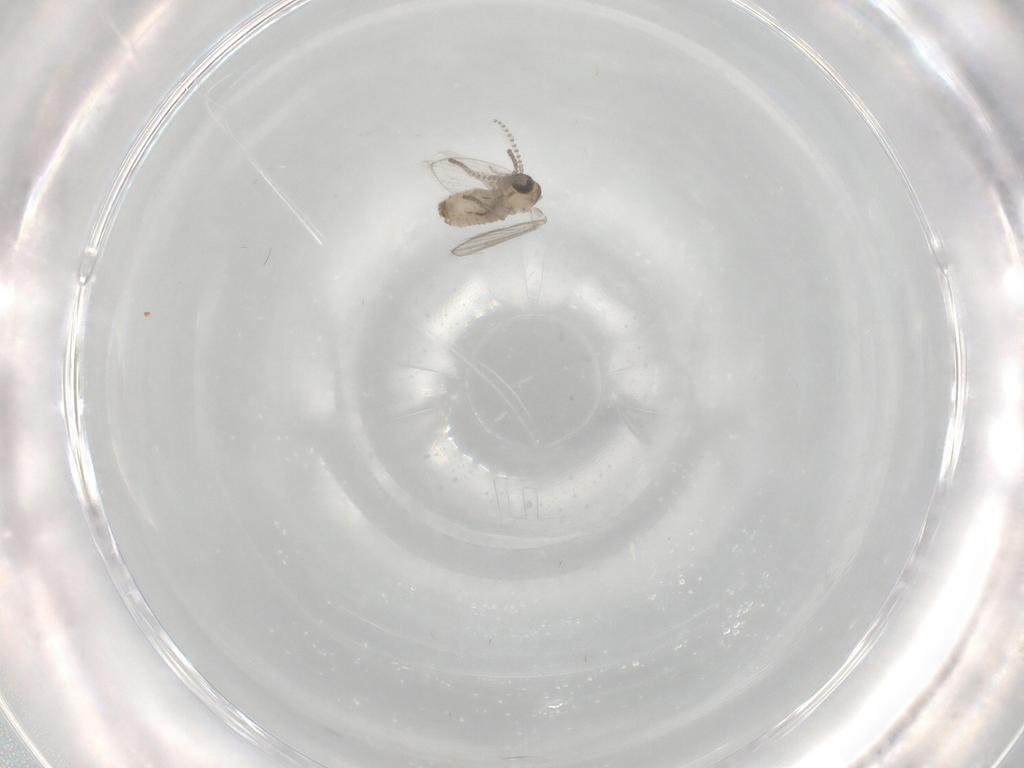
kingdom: Animalia
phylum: Arthropoda
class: Insecta
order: Diptera
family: Psychodidae
